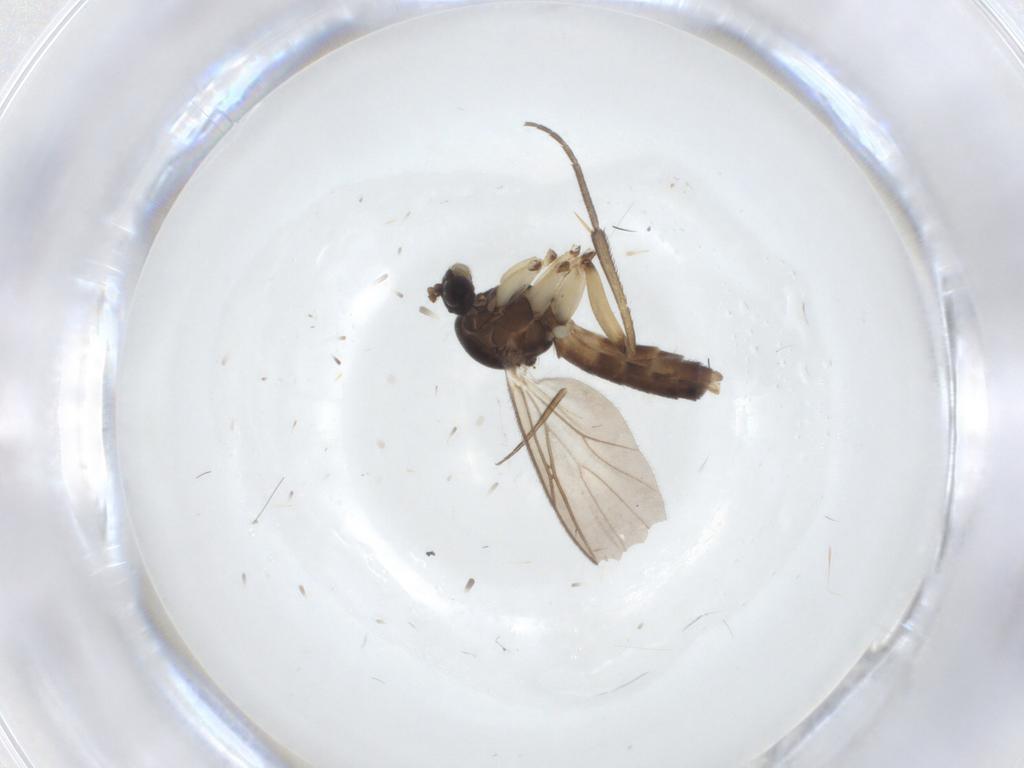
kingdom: Animalia
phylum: Arthropoda
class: Insecta
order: Diptera
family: Phoridae
